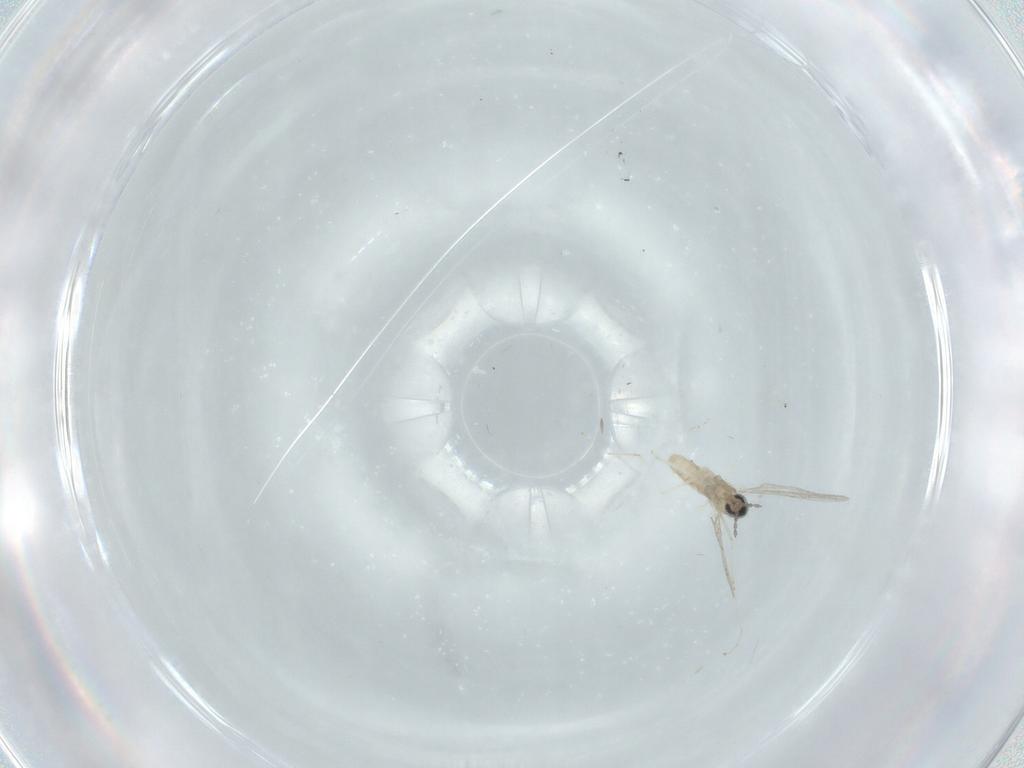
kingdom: Animalia
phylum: Arthropoda
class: Insecta
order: Diptera
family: Cecidomyiidae
